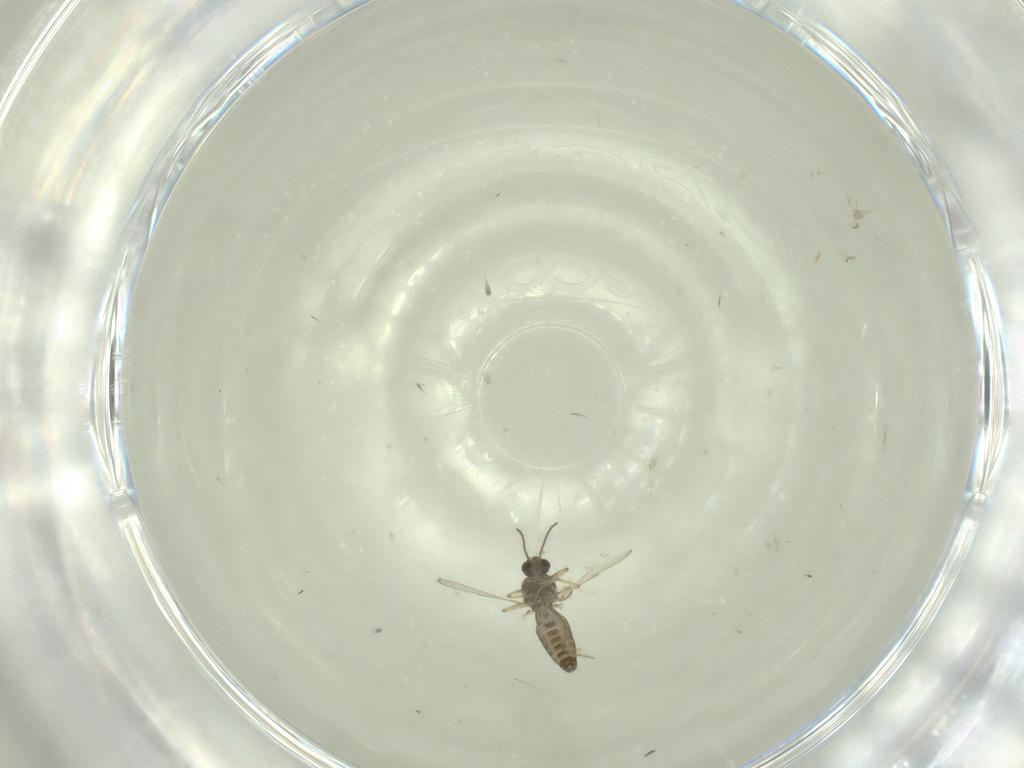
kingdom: Animalia
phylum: Arthropoda
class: Insecta
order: Diptera
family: Ceratopogonidae
